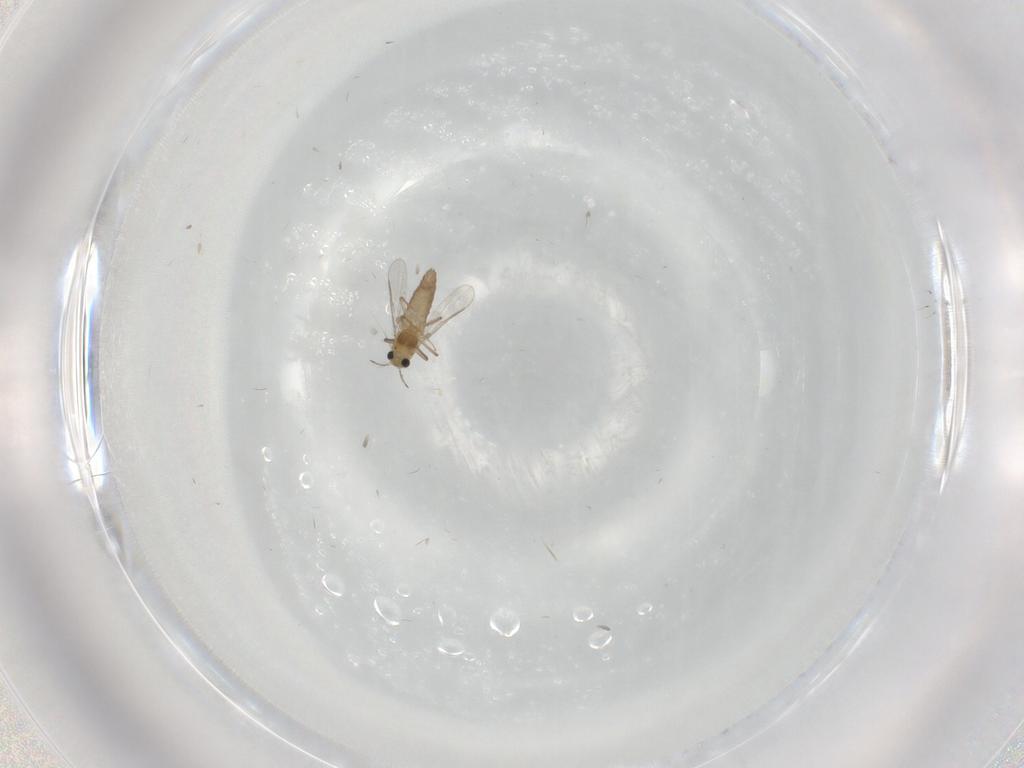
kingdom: Animalia
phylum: Arthropoda
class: Insecta
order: Diptera
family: Chironomidae
